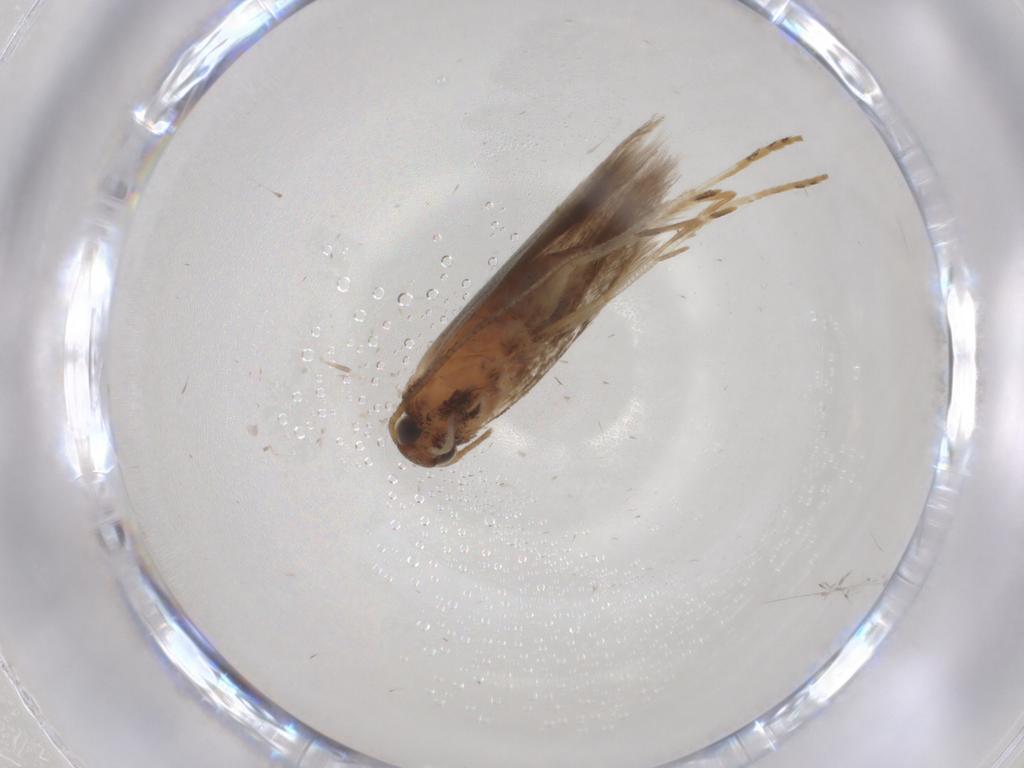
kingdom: Animalia
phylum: Arthropoda
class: Insecta
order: Lepidoptera
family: Gelechiidae
